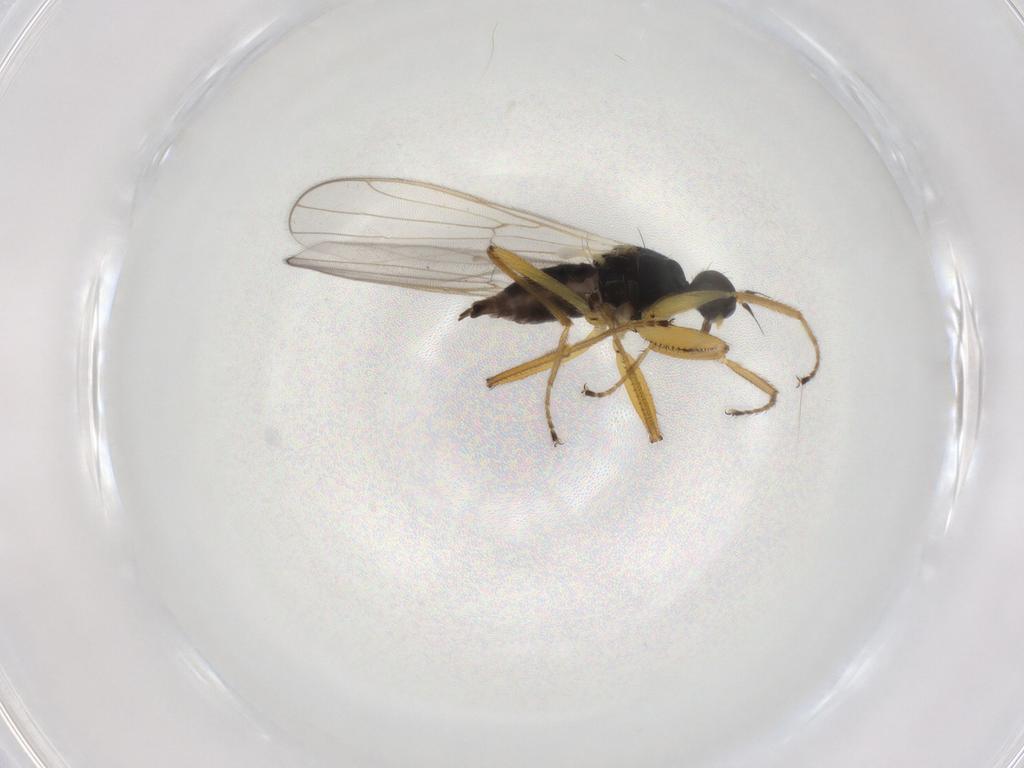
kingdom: Animalia
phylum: Arthropoda
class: Insecta
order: Diptera
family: Hybotidae
